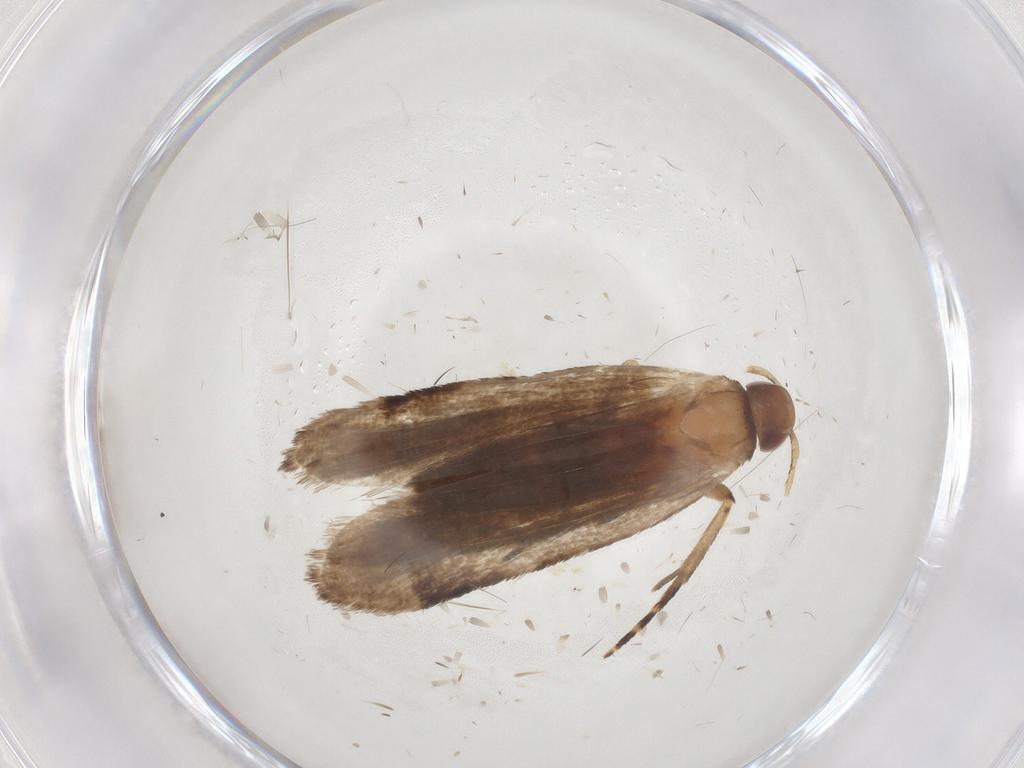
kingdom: Animalia
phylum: Arthropoda
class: Insecta
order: Lepidoptera
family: Gelechiidae
